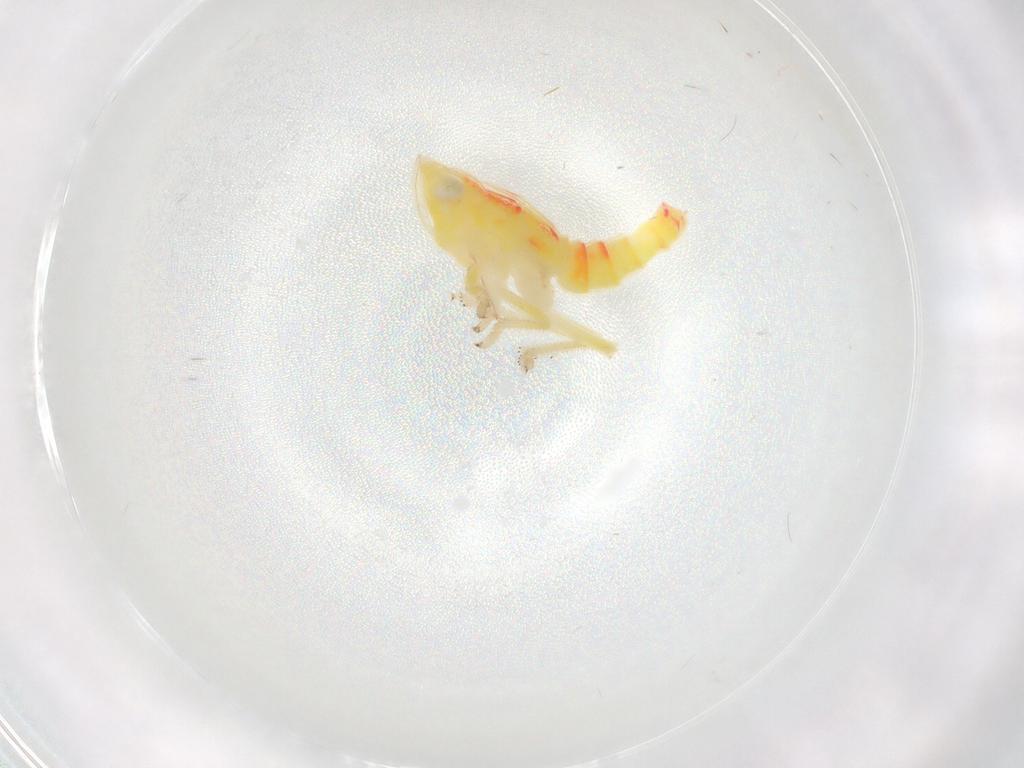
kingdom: Animalia
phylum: Arthropoda
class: Insecta
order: Hemiptera
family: Tropiduchidae
